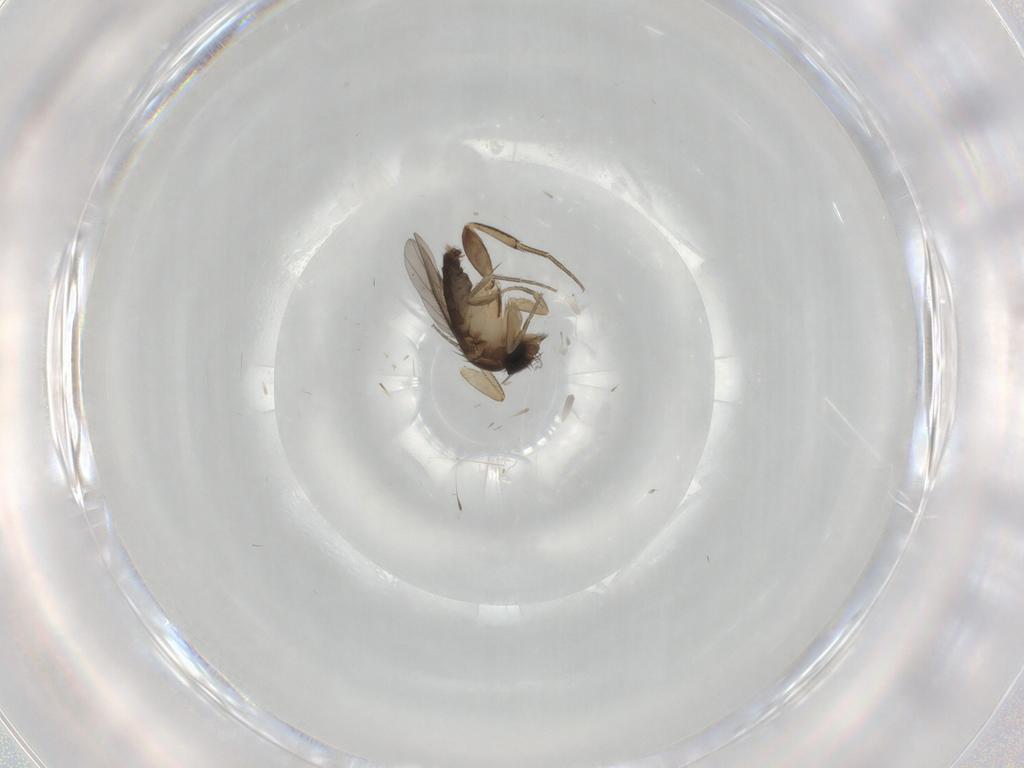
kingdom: Animalia
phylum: Arthropoda
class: Insecta
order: Diptera
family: Phoridae
